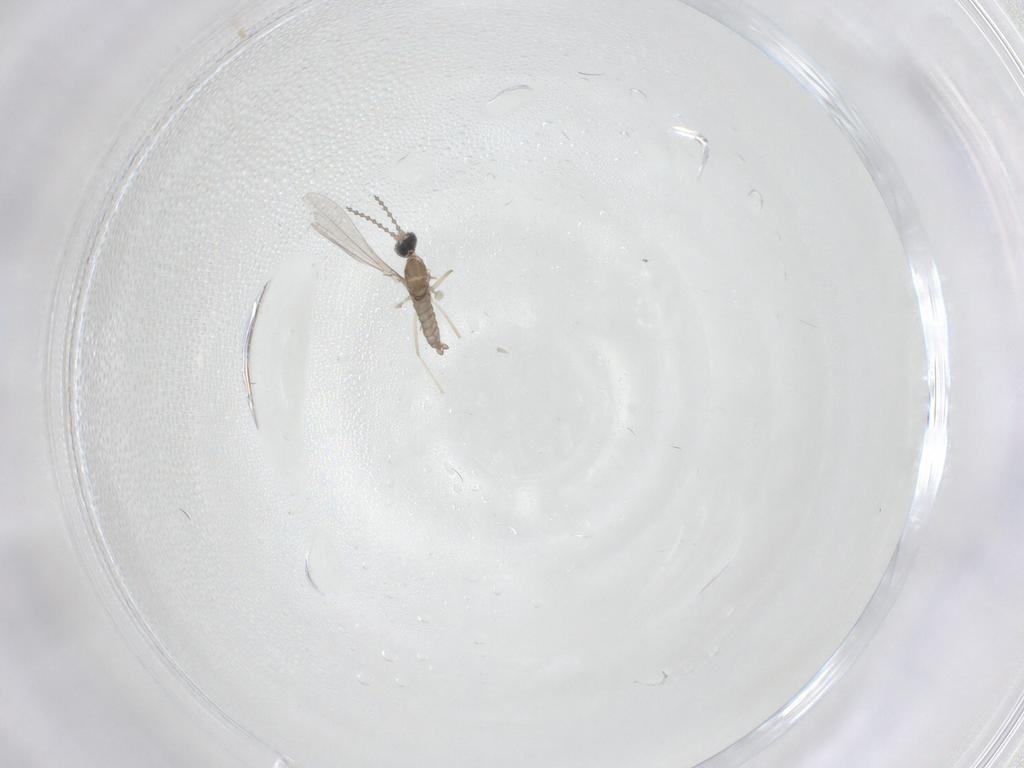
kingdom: Animalia
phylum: Arthropoda
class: Insecta
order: Diptera
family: Cecidomyiidae
